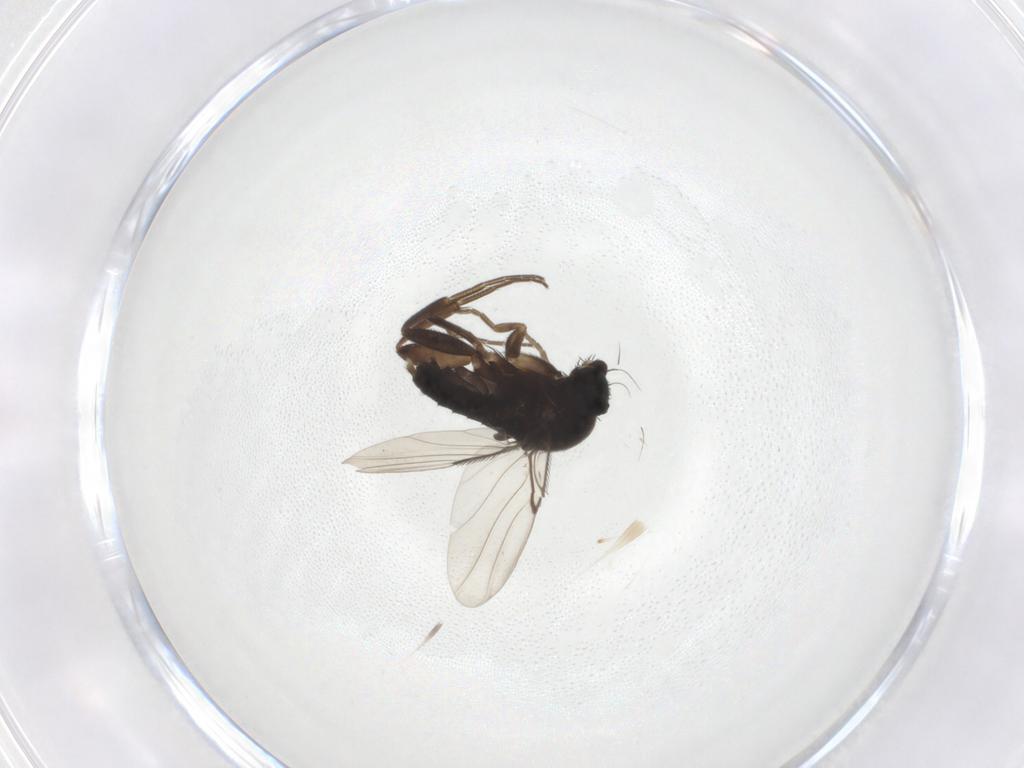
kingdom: Animalia
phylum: Arthropoda
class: Insecta
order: Diptera
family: Phoridae
